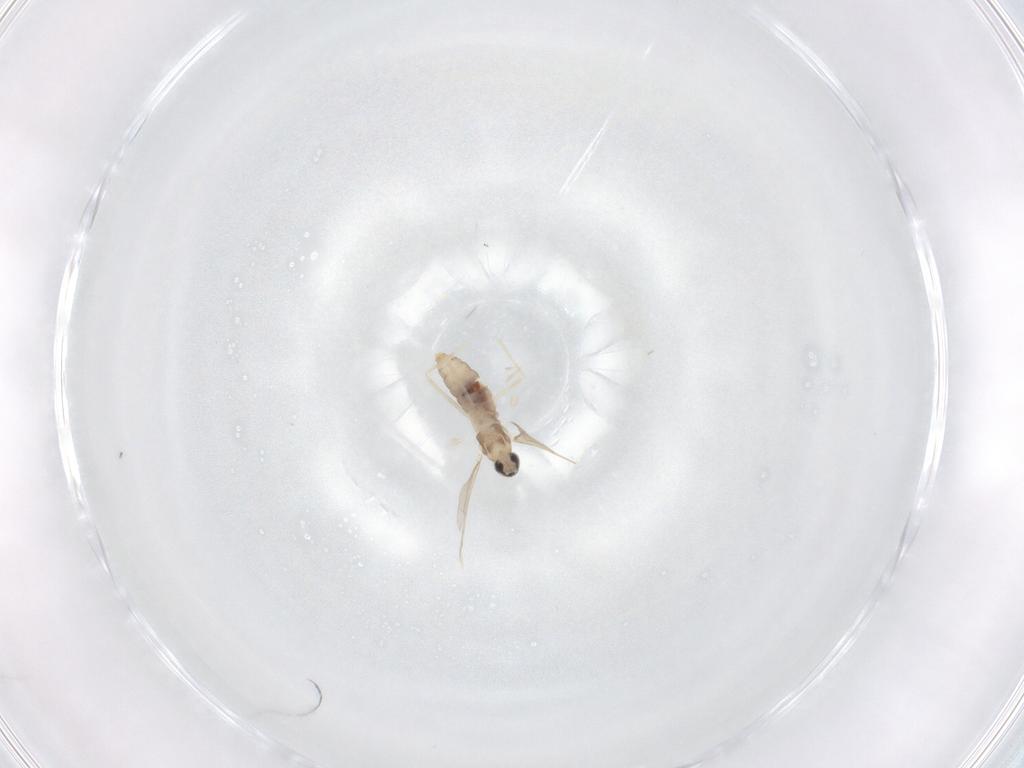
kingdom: Animalia
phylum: Arthropoda
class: Insecta
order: Diptera
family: Cecidomyiidae
